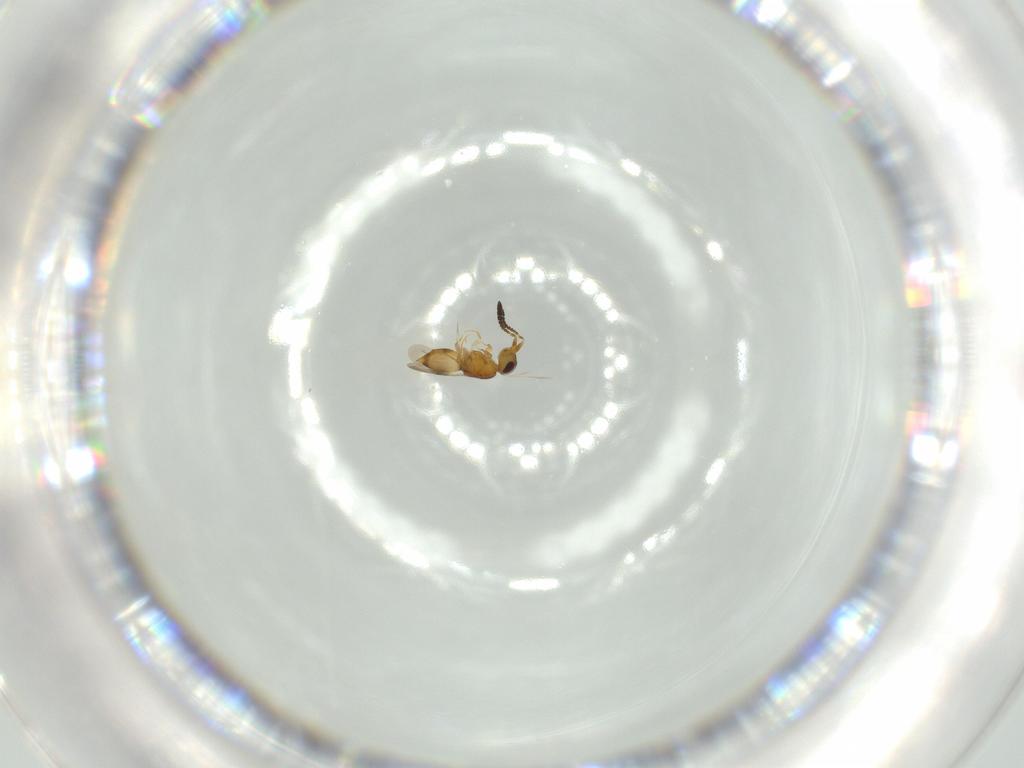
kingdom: Animalia
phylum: Arthropoda
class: Insecta
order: Hymenoptera
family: Ceraphronidae
